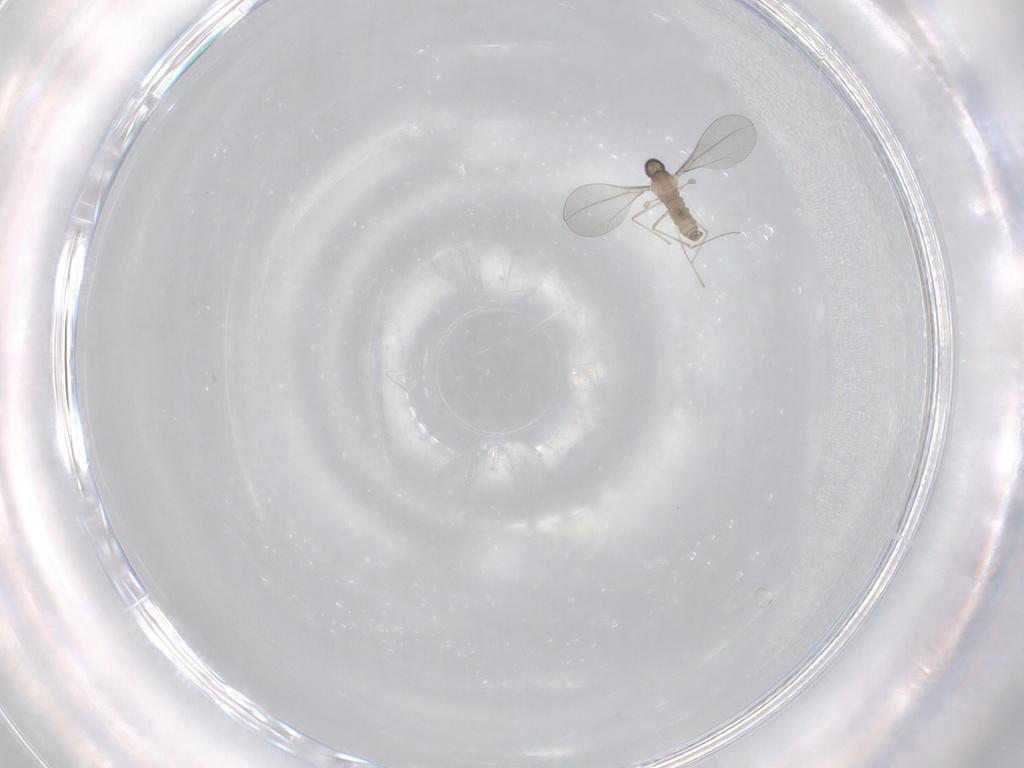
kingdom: Animalia
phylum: Arthropoda
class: Insecta
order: Diptera
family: Cecidomyiidae
